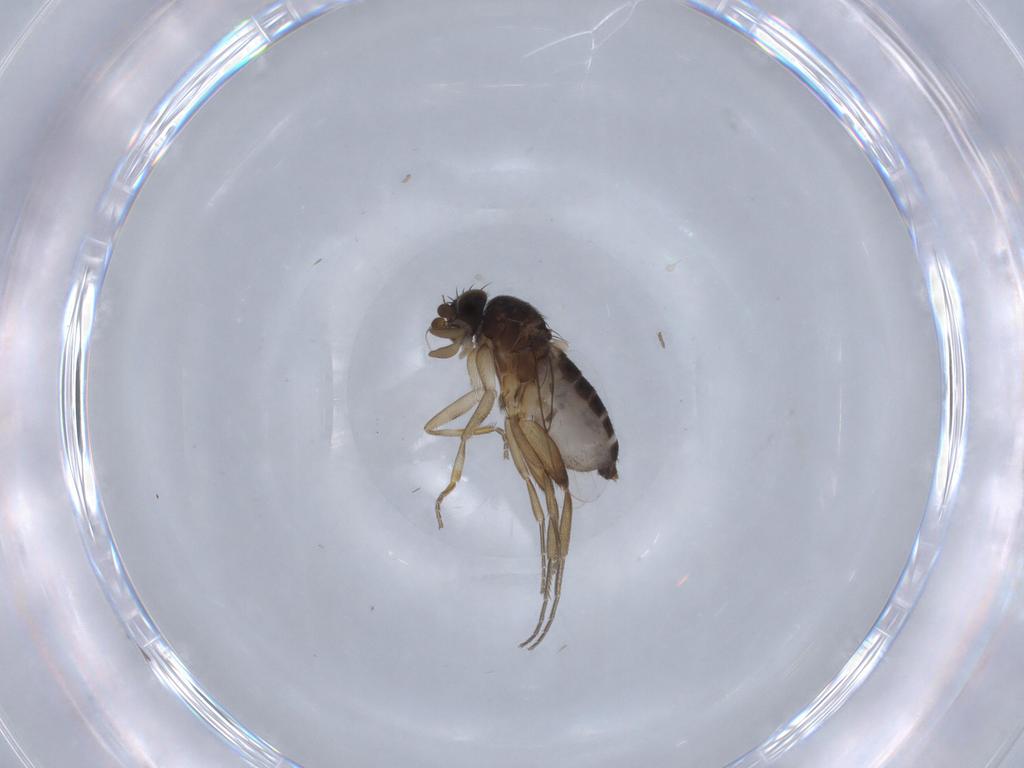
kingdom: Animalia
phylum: Arthropoda
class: Insecta
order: Diptera
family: Phoridae
